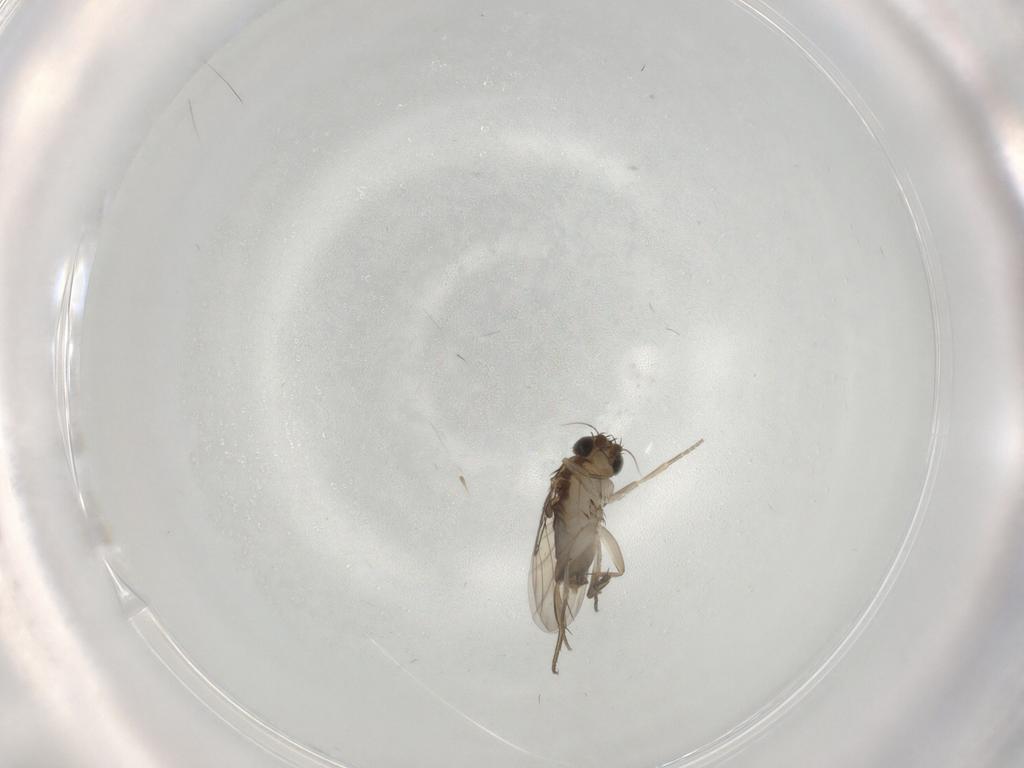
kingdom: Animalia
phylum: Arthropoda
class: Insecta
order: Diptera
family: Phoridae
